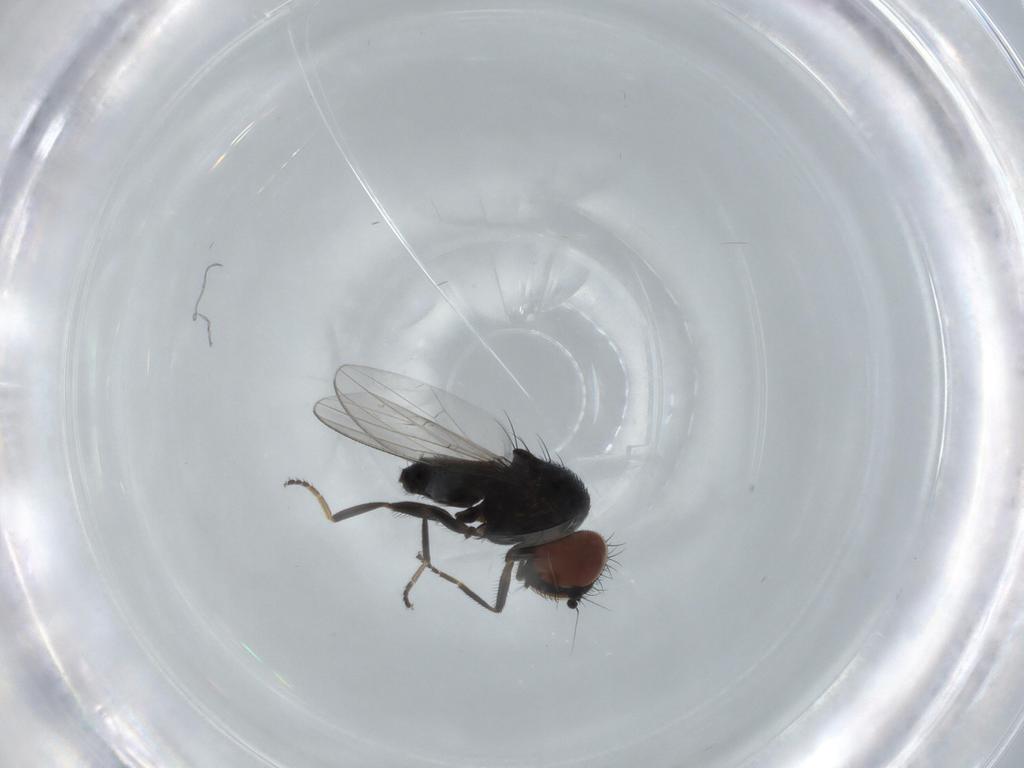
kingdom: Animalia
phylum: Arthropoda
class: Insecta
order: Diptera
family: Milichiidae
